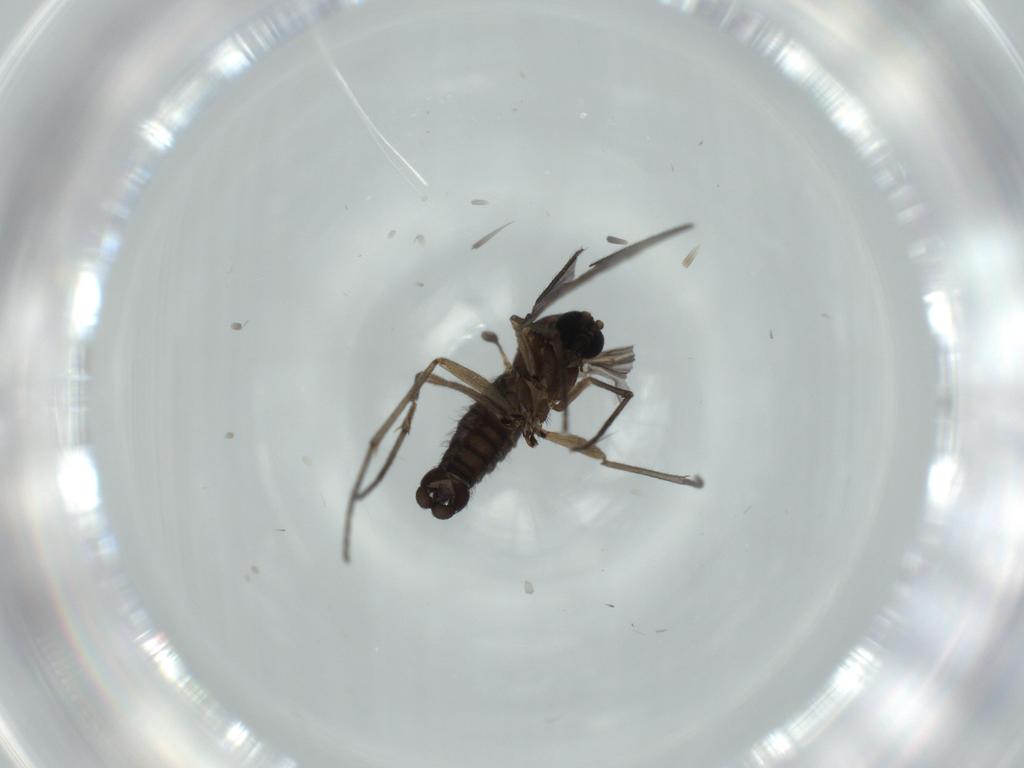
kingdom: Animalia
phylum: Arthropoda
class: Insecta
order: Diptera
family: Sciaridae
